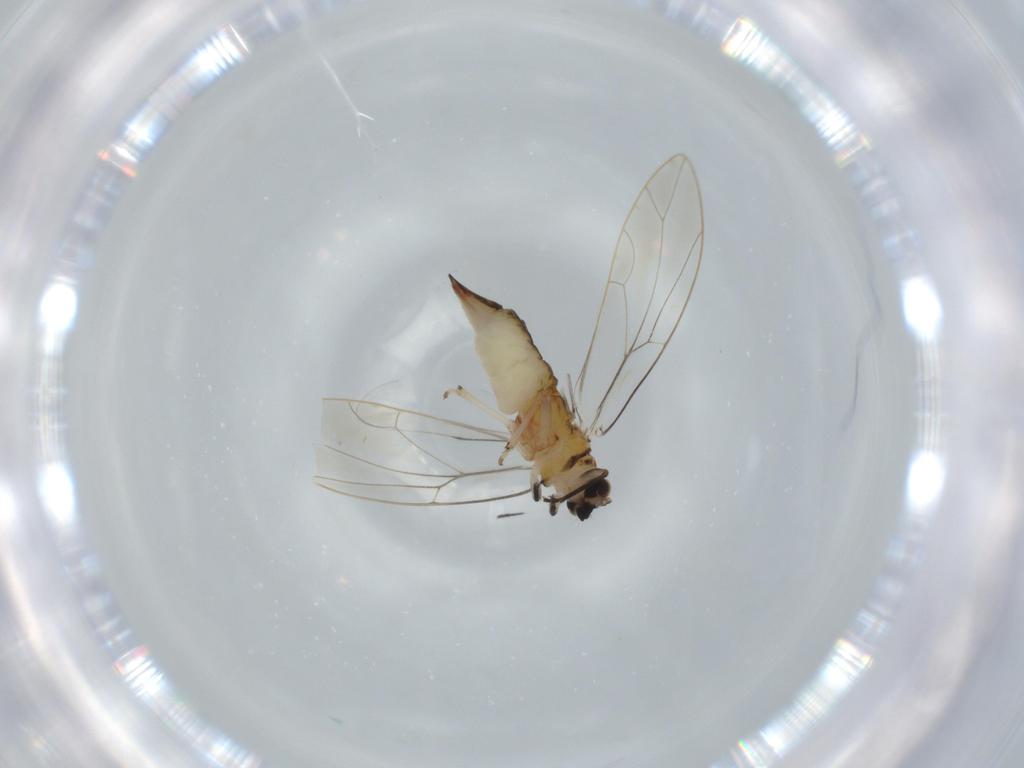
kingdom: Animalia
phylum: Arthropoda
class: Insecta
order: Hemiptera
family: Triozidae
